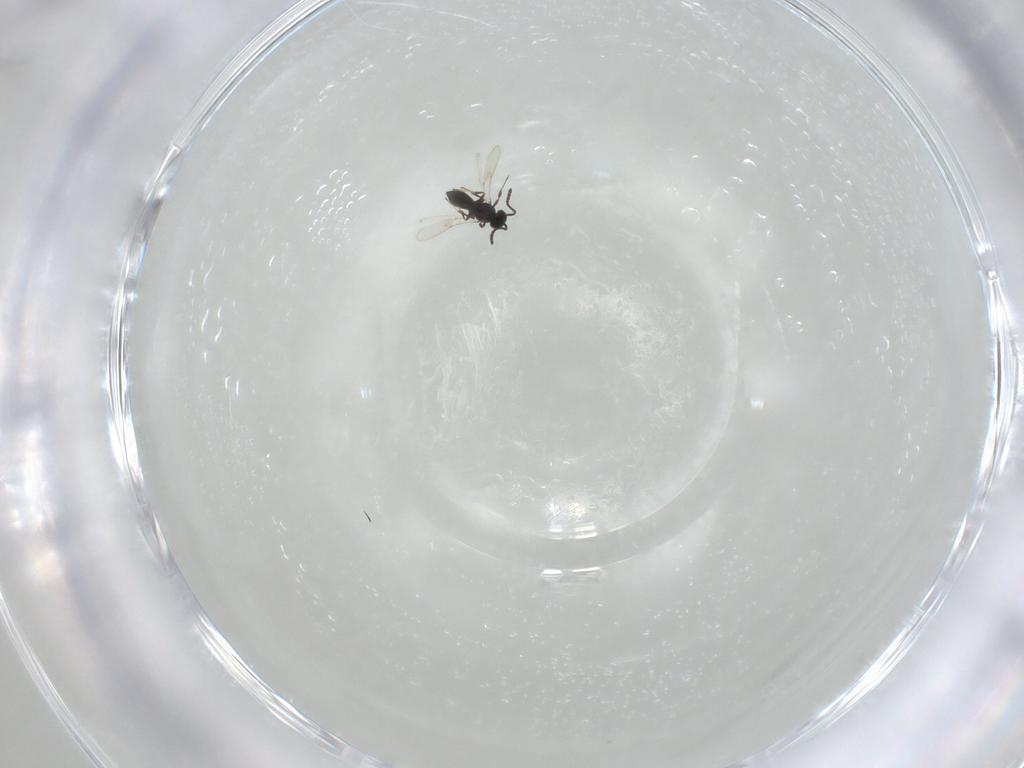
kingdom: Animalia
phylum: Arthropoda
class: Insecta
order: Hymenoptera
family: Scelionidae
